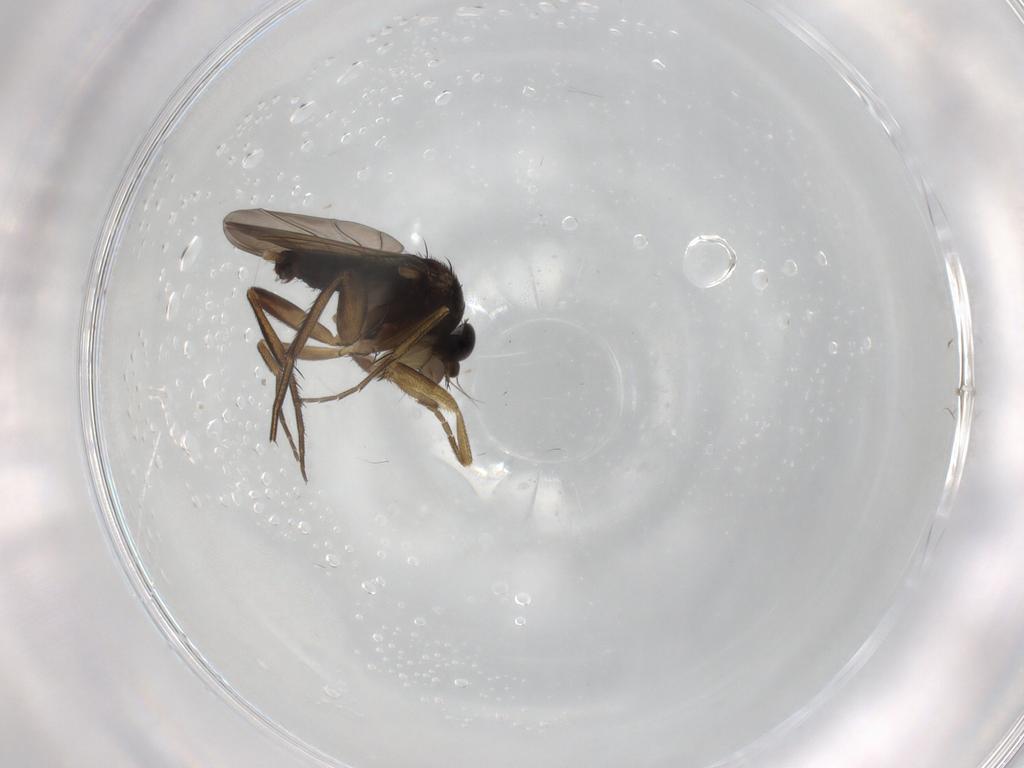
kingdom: Animalia
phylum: Arthropoda
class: Insecta
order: Diptera
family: Phoridae
